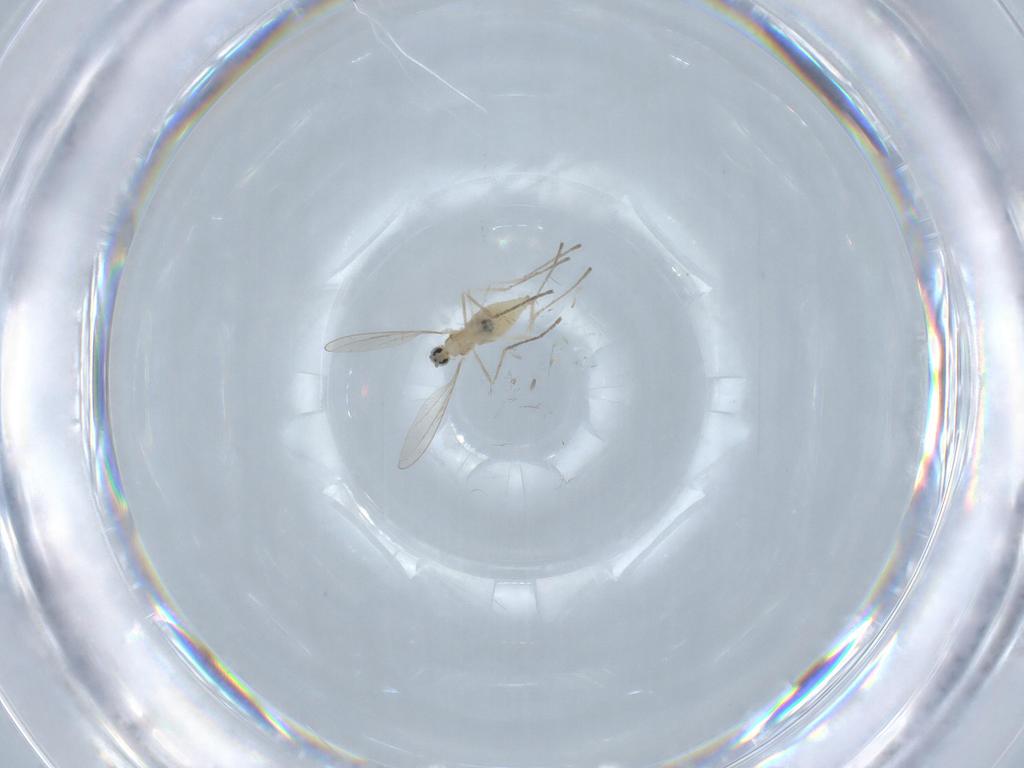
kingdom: Animalia
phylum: Arthropoda
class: Insecta
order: Diptera
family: Cecidomyiidae
